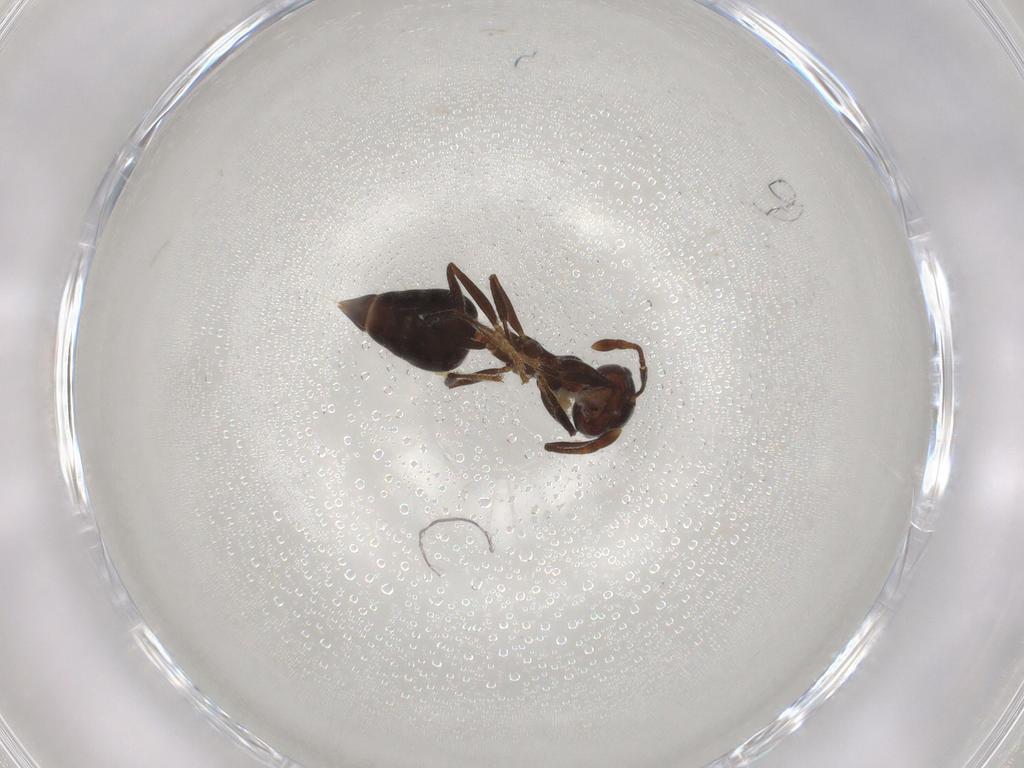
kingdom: Animalia
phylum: Arthropoda
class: Insecta
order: Hymenoptera
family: Formicidae
